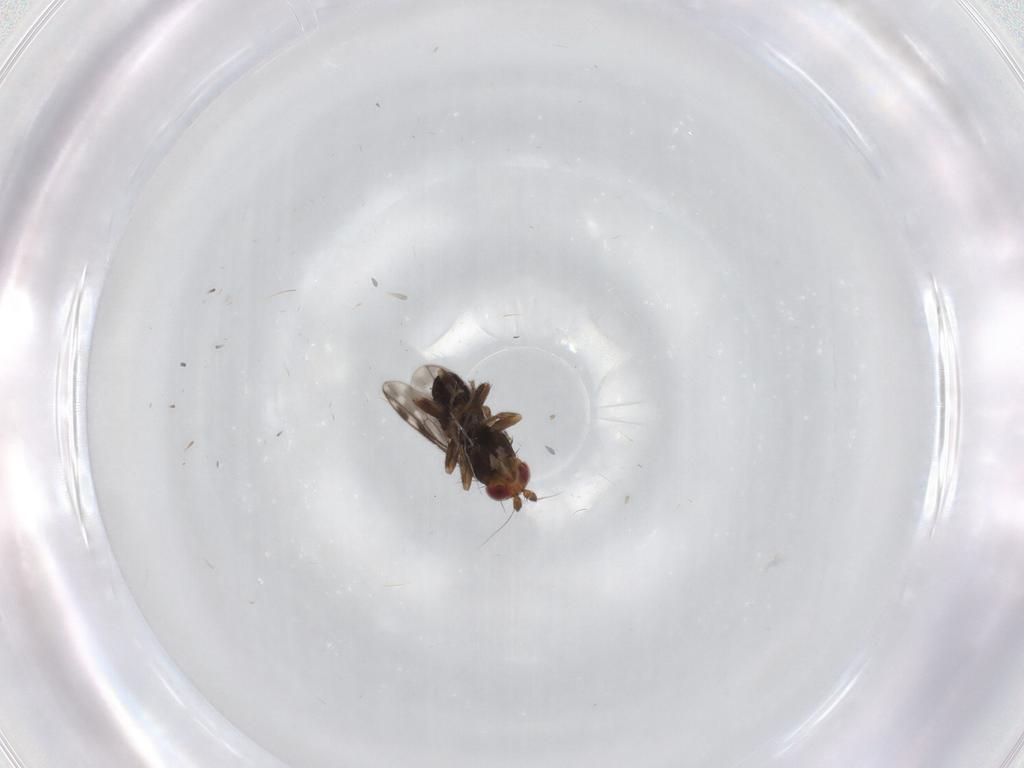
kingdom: Animalia
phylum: Arthropoda
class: Insecta
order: Diptera
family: Sphaeroceridae
